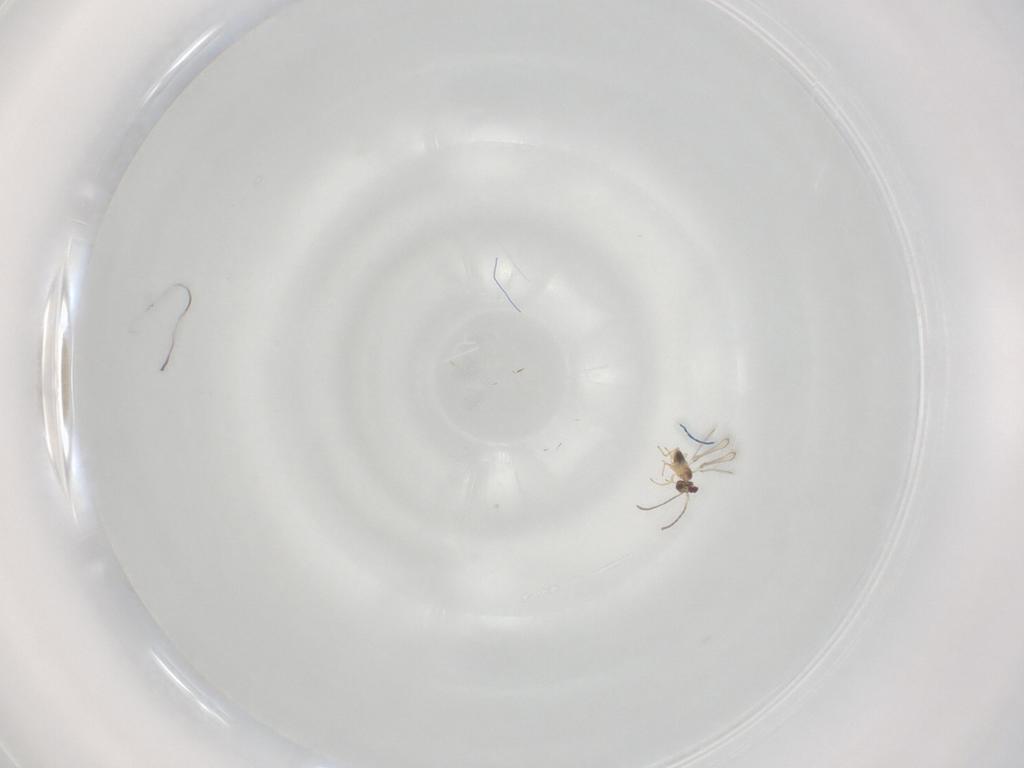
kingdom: Animalia
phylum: Arthropoda
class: Insecta
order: Hymenoptera
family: Mymaridae
